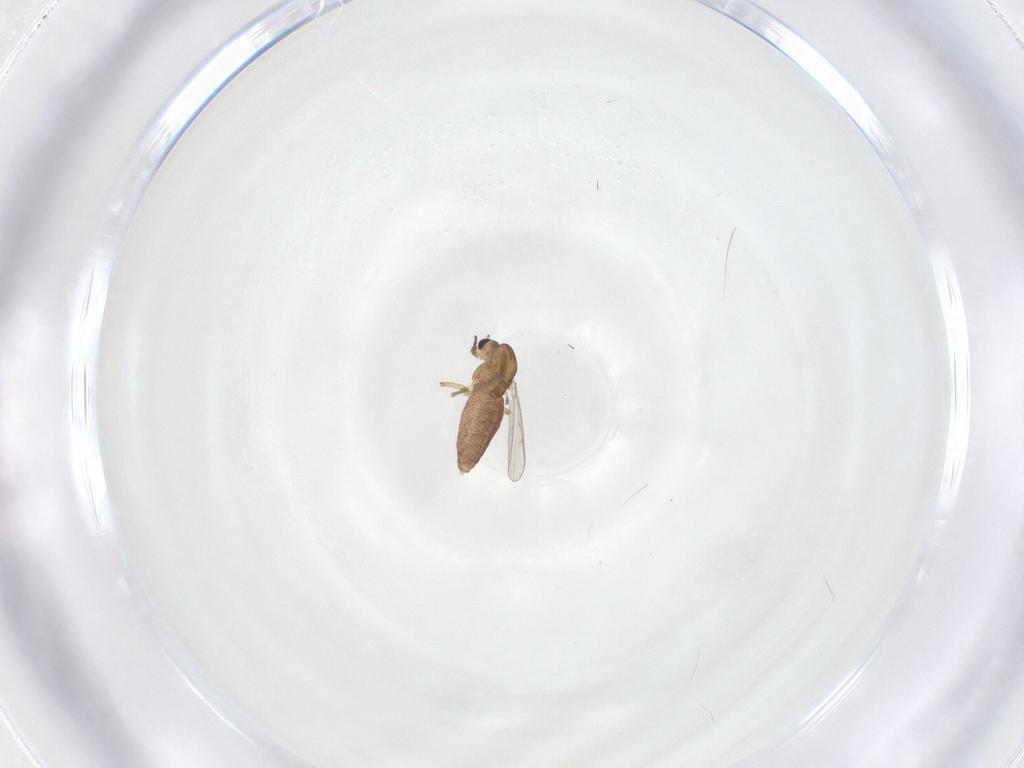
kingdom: Animalia
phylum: Arthropoda
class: Insecta
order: Diptera
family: Chironomidae
